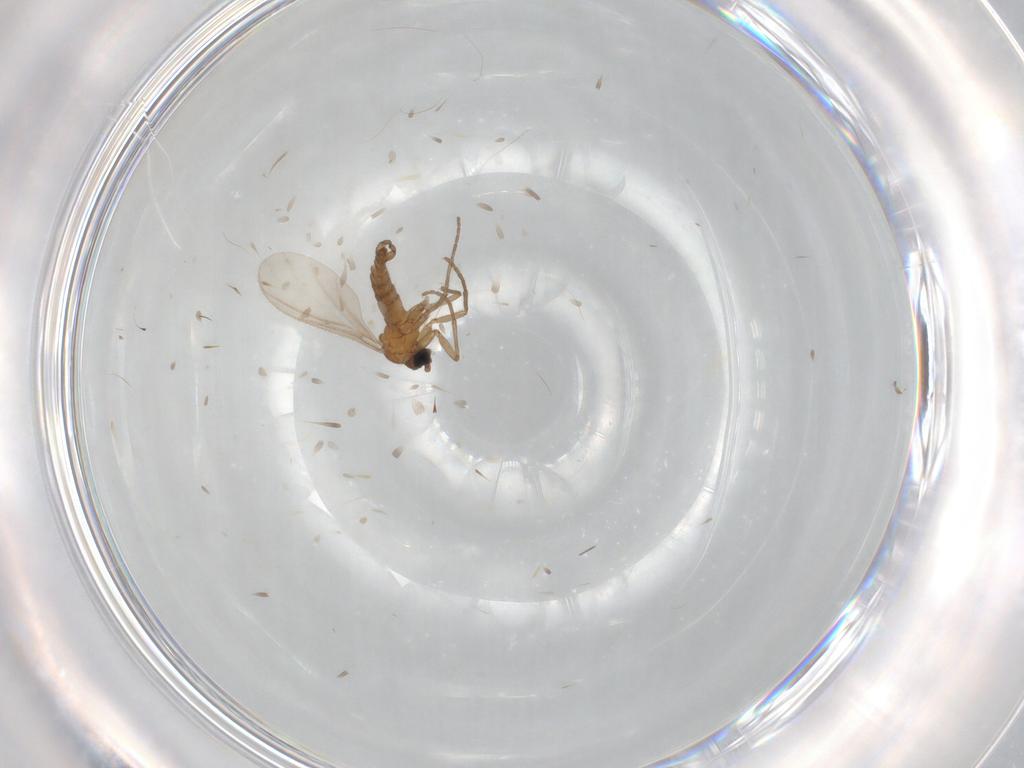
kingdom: Animalia
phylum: Arthropoda
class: Insecta
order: Diptera
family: Sciaridae
